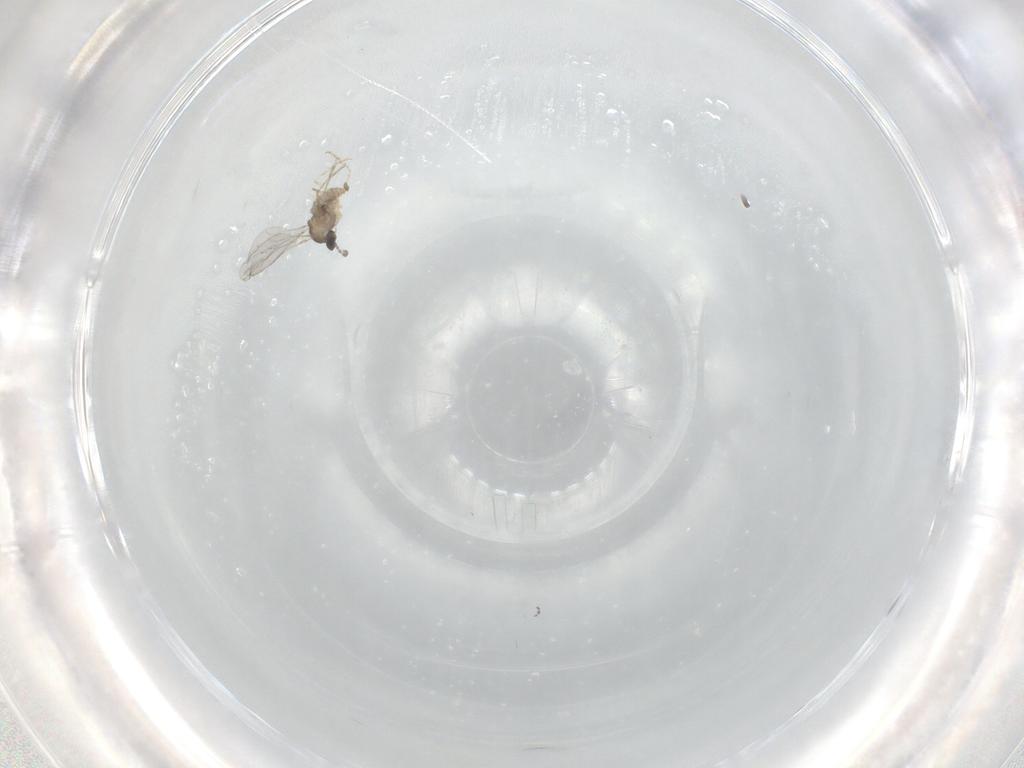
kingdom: Animalia
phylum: Arthropoda
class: Insecta
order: Diptera
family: Cecidomyiidae
